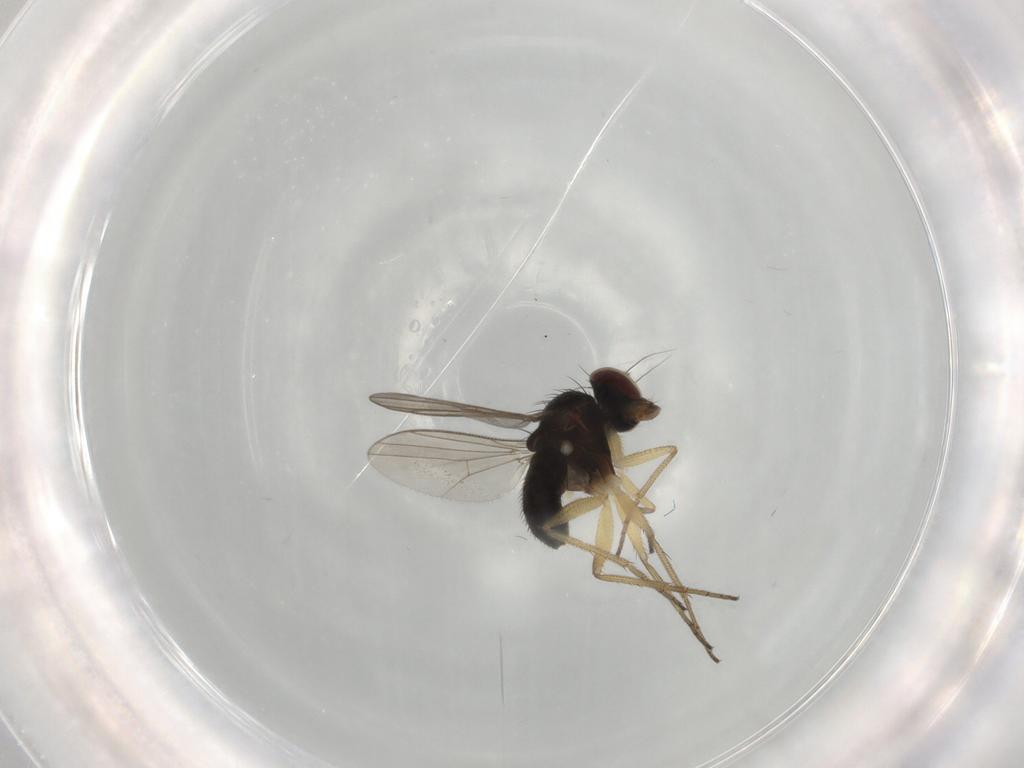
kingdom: Animalia
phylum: Arthropoda
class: Insecta
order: Diptera
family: Dolichopodidae
